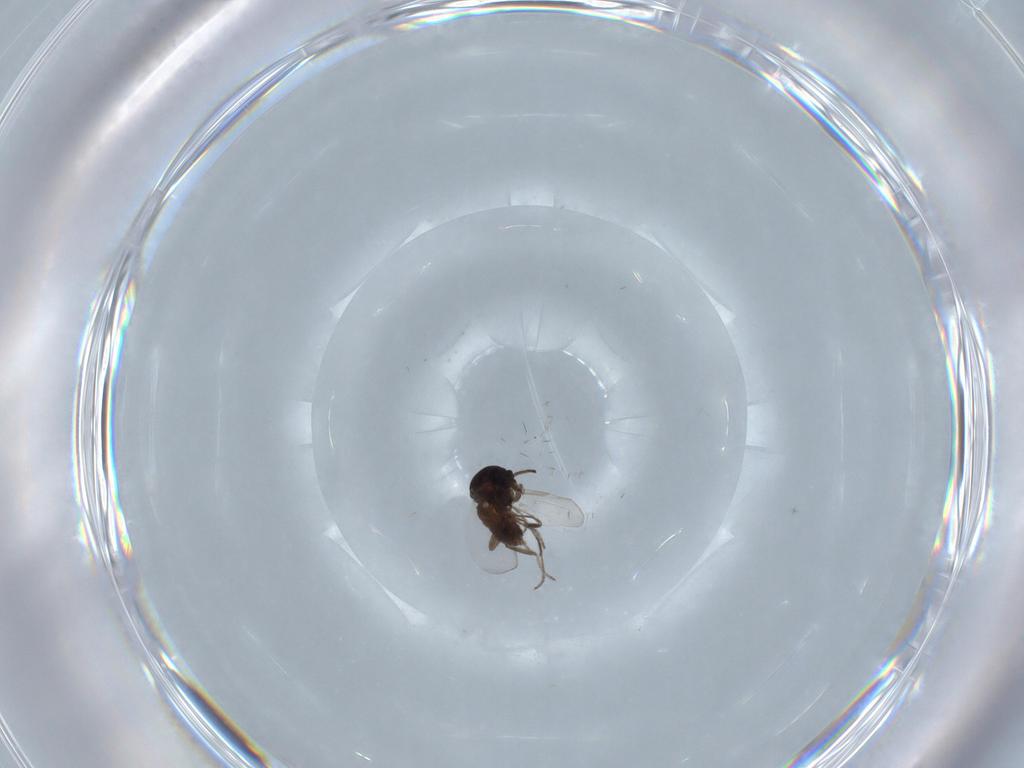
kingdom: Animalia
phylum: Arthropoda
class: Insecta
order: Diptera
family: Ceratopogonidae
